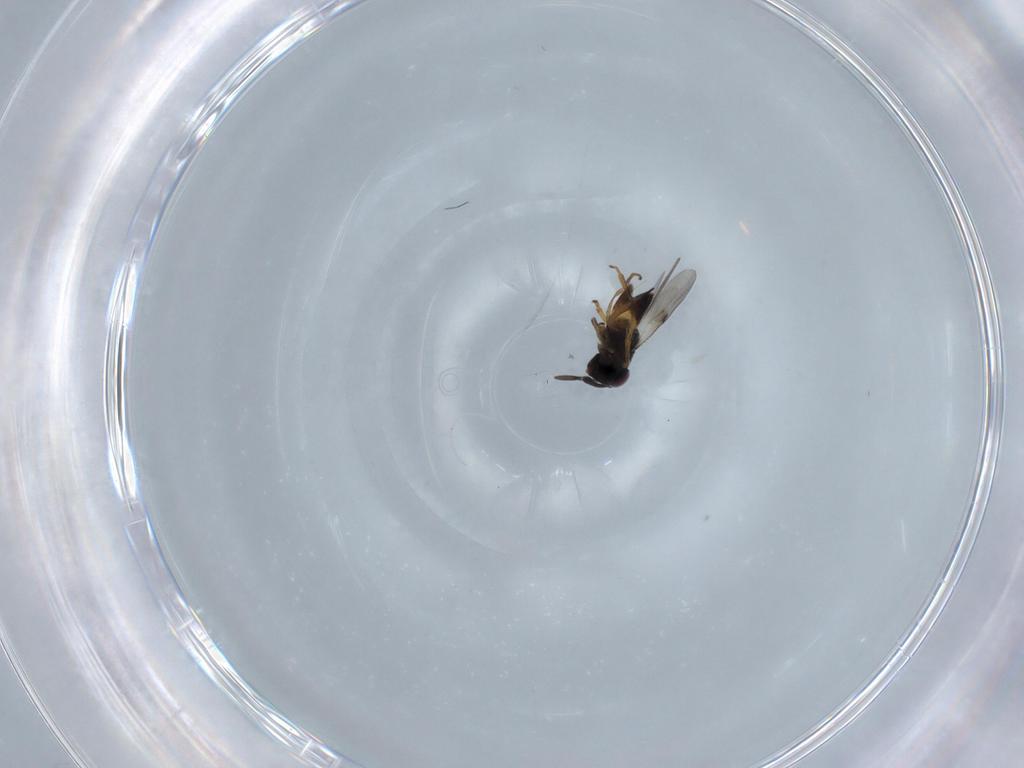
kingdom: Animalia
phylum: Arthropoda
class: Insecta
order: Hymenoptera
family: Encyrtidae
